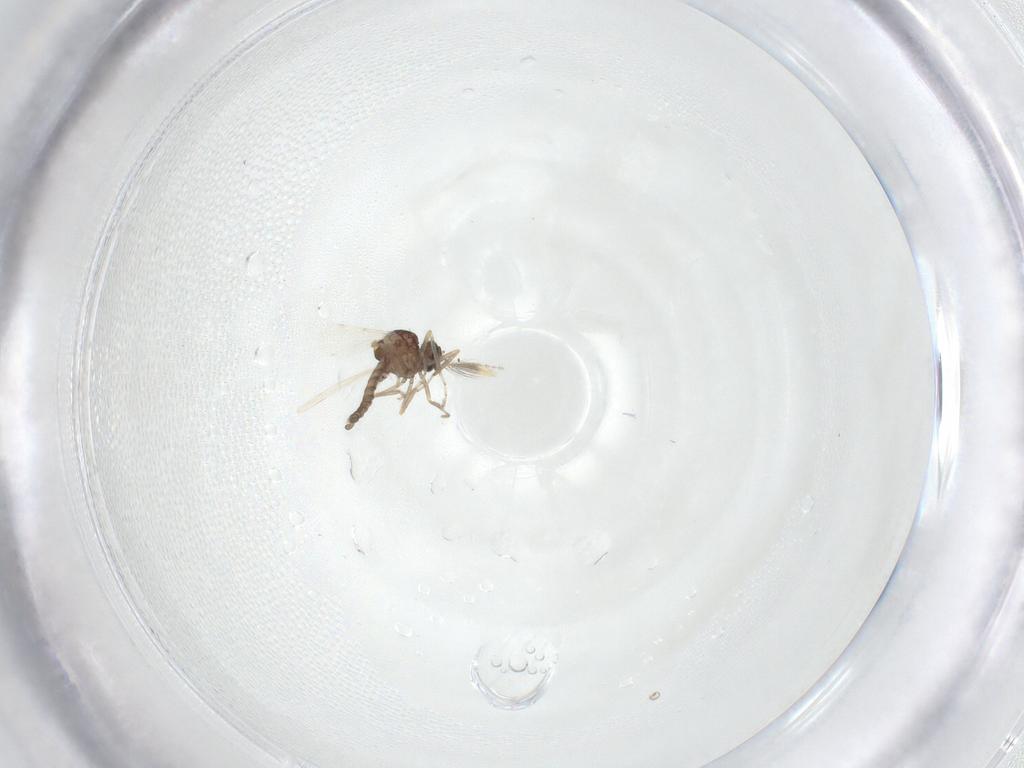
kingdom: Animalia
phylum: Arthropoda
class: Insecta
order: Diptera
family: Ceratopogonidae
